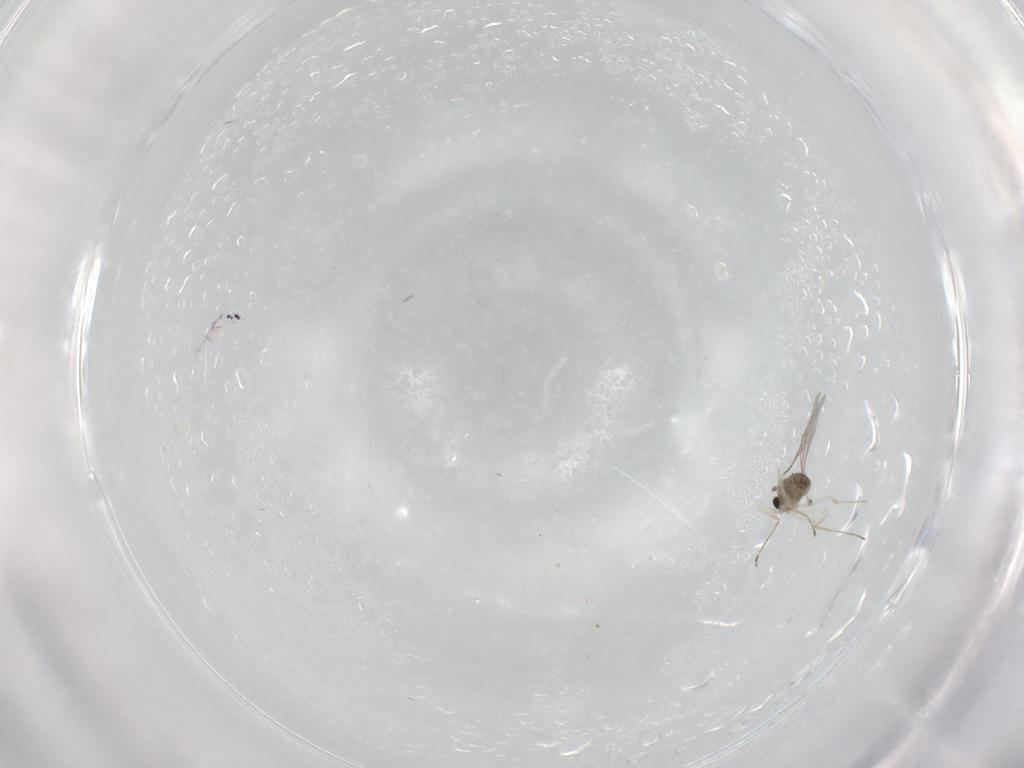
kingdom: Animalia
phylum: Arthropoda
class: Insecta
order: Diptera
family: Cecidomyiidae
